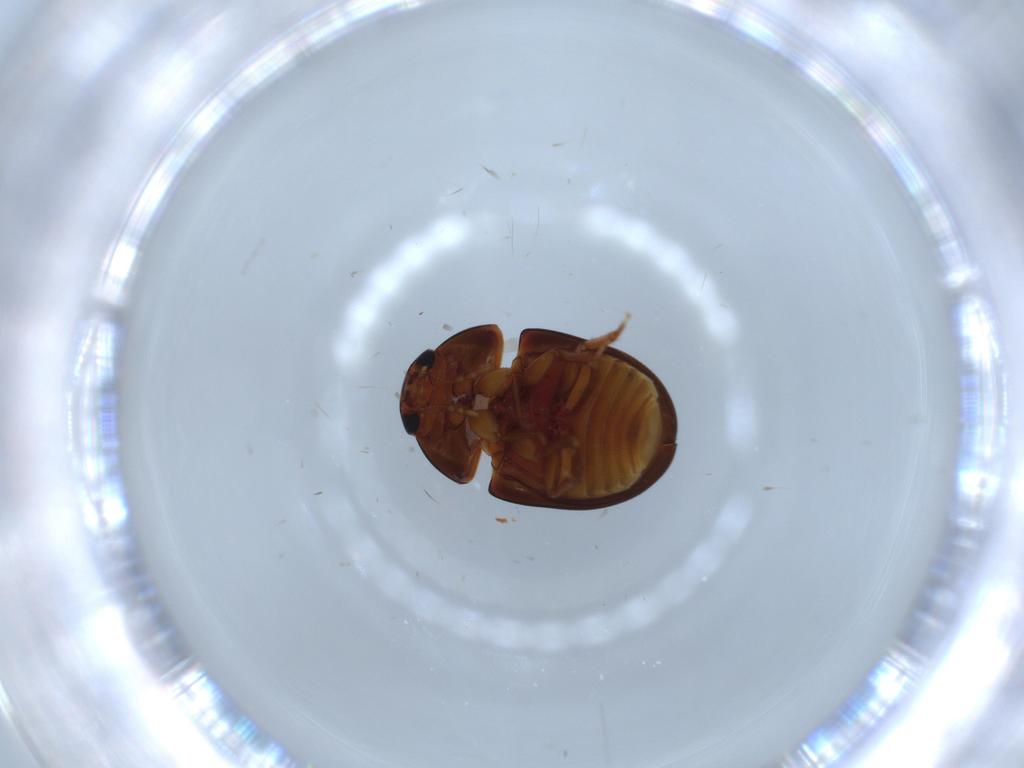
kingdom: Animalia
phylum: Arthropoda
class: Insecta
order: Coleoptera
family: Phalacridae
